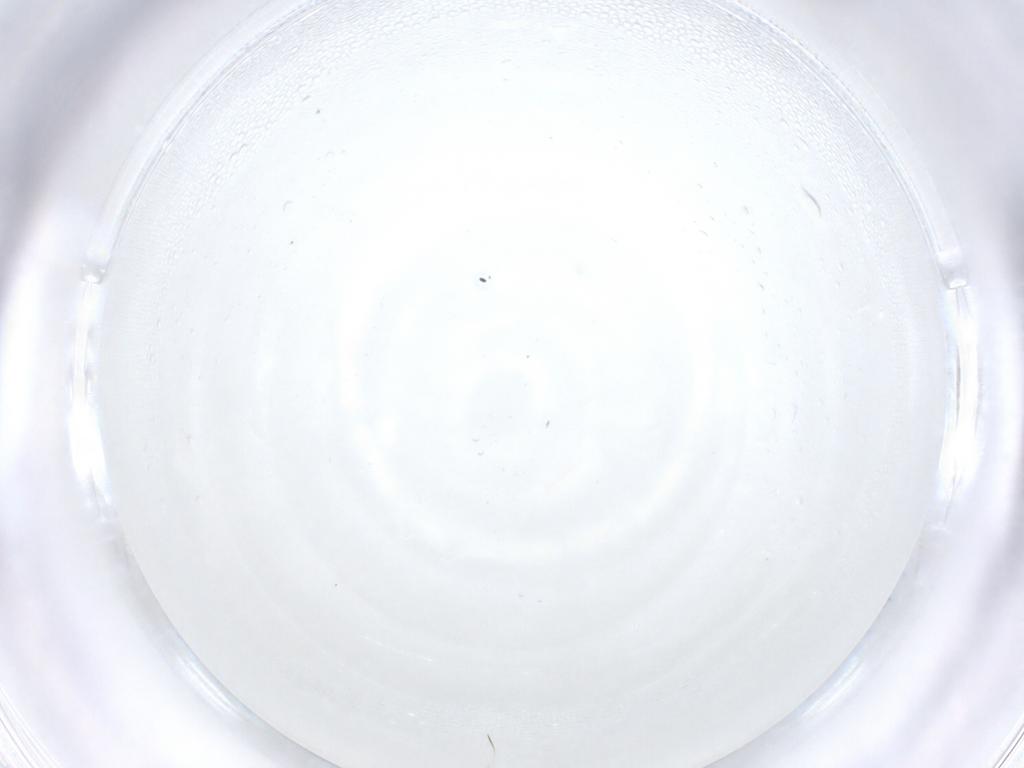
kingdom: Animalia
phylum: Arthropoda
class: Insecta
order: Diptera
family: Sciaridae
